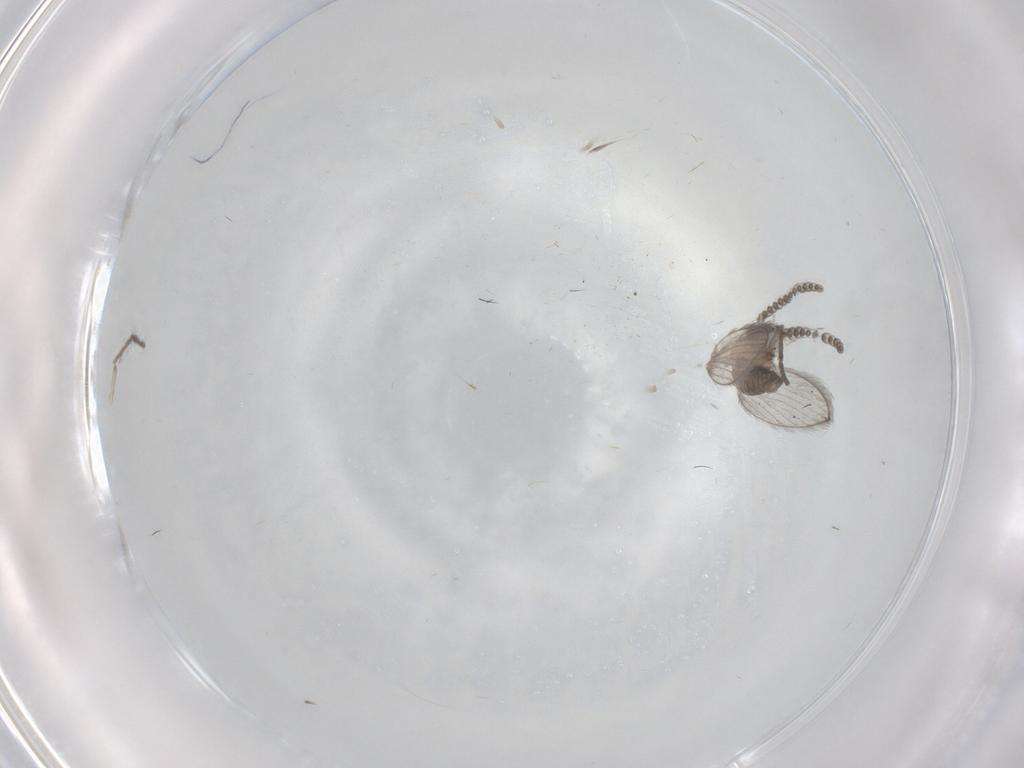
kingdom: Animalia
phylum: Arthropoda
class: Insecta
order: Diptera
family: Psychodidae
